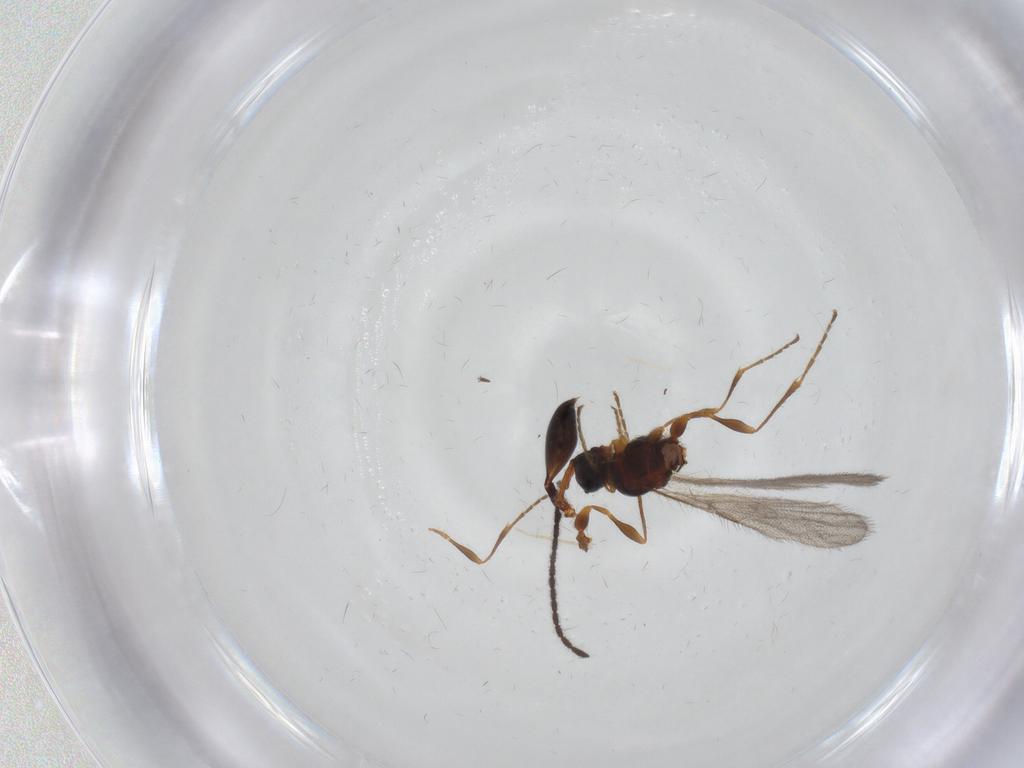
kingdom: Animalia
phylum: Arthropoda
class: Insecta
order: Hymenoptera
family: Diapriidae
